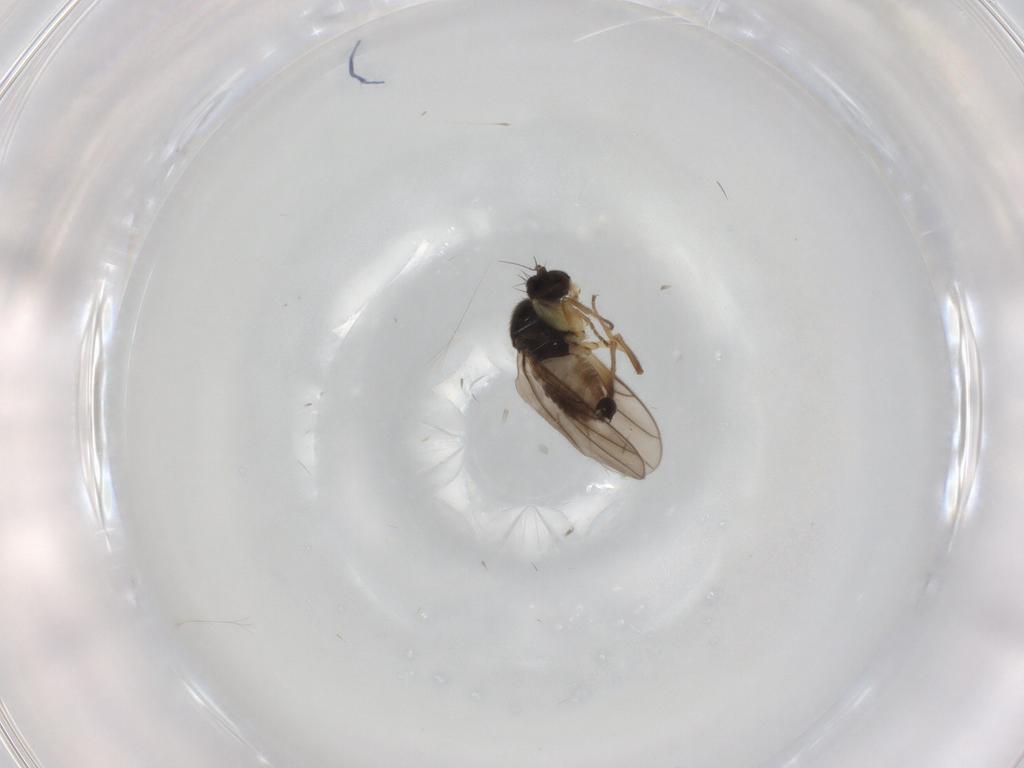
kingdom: Animalia
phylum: Arthropoda
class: Insecta
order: Diptera
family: Hybotidae
